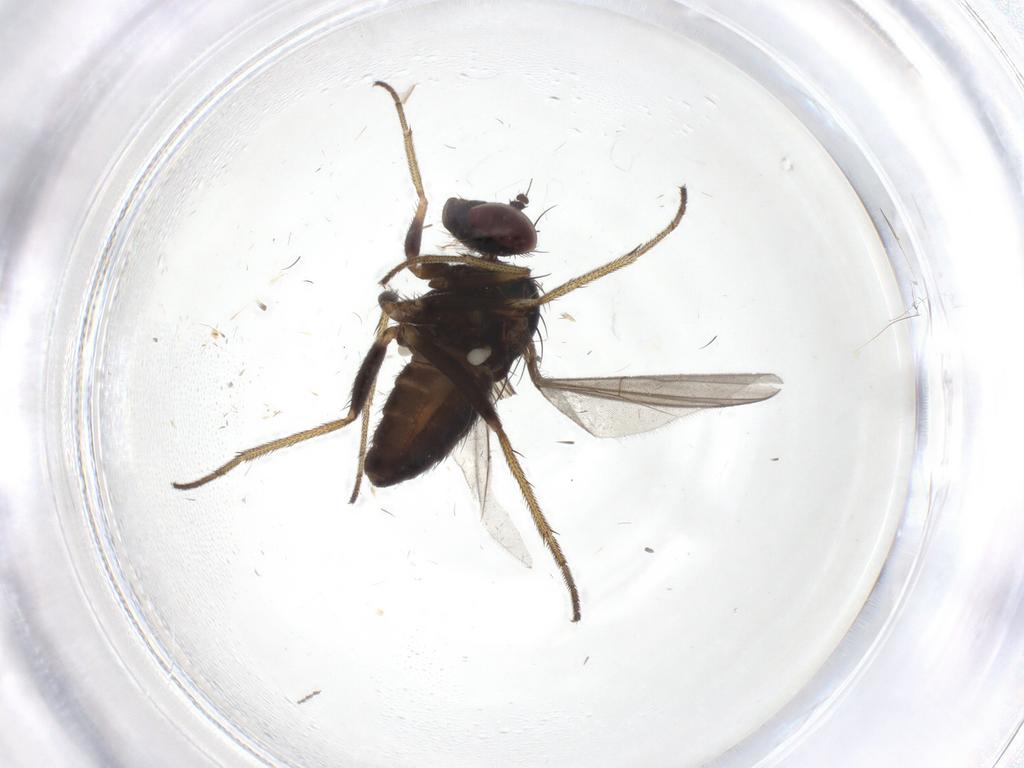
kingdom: Animalia
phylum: Arthropoda
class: Insecta
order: Diptera
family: Limoniidae
